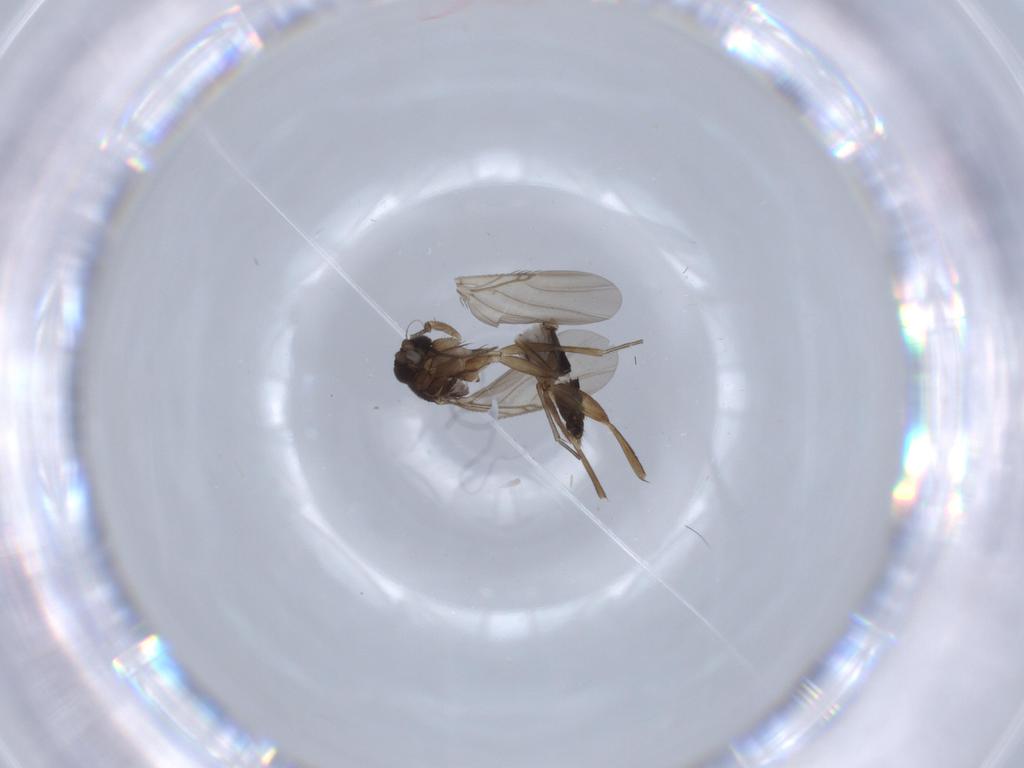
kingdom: Animalia
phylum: Arthropoda
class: Insecta
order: Diptera
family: Phoridae
